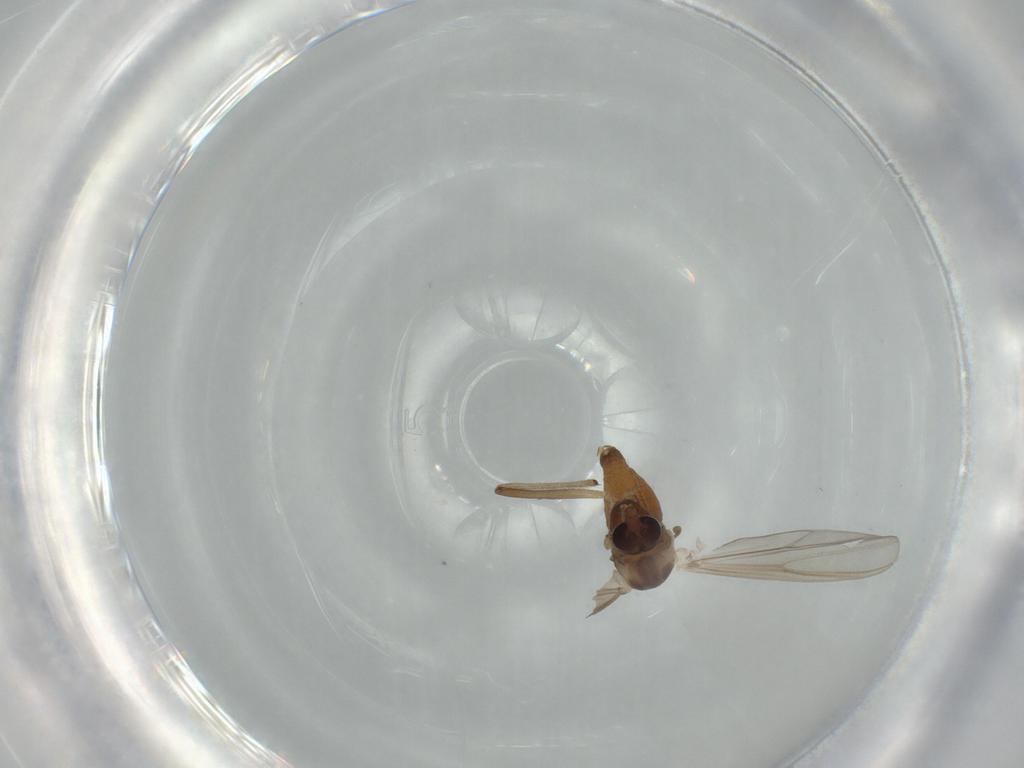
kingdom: Animalia
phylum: Arthropoda
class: Insecta
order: Diptera
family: Chironomidae
